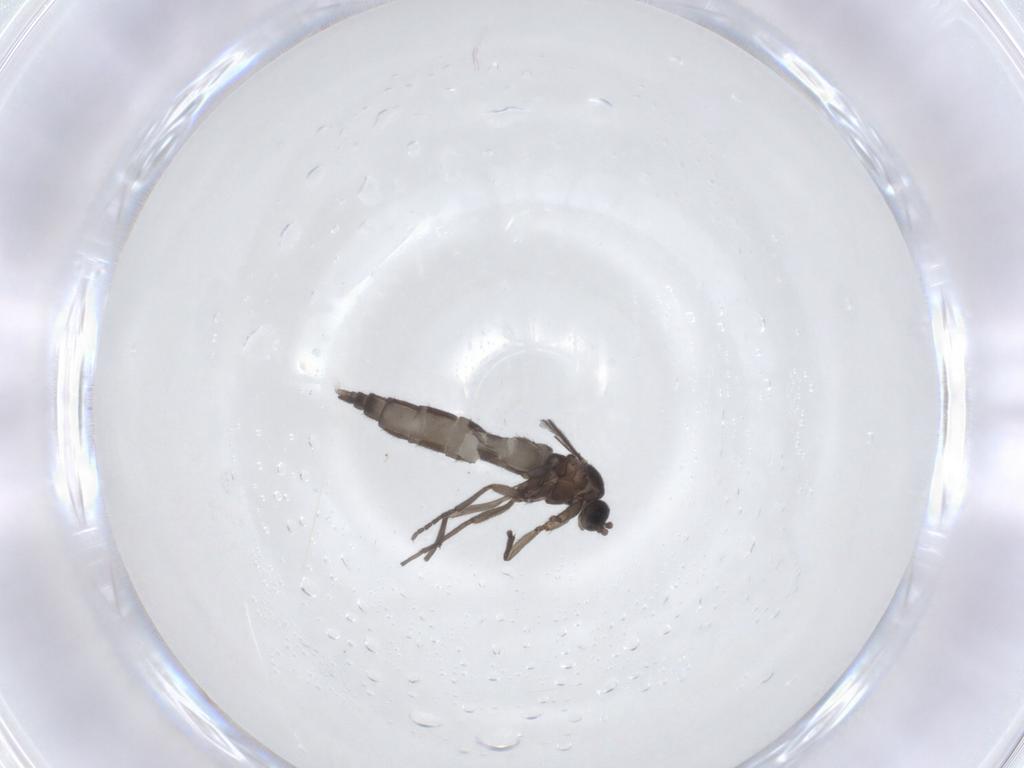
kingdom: Animalia
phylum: Arthropoda
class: Insecta
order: Diptera
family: Sciaridae
